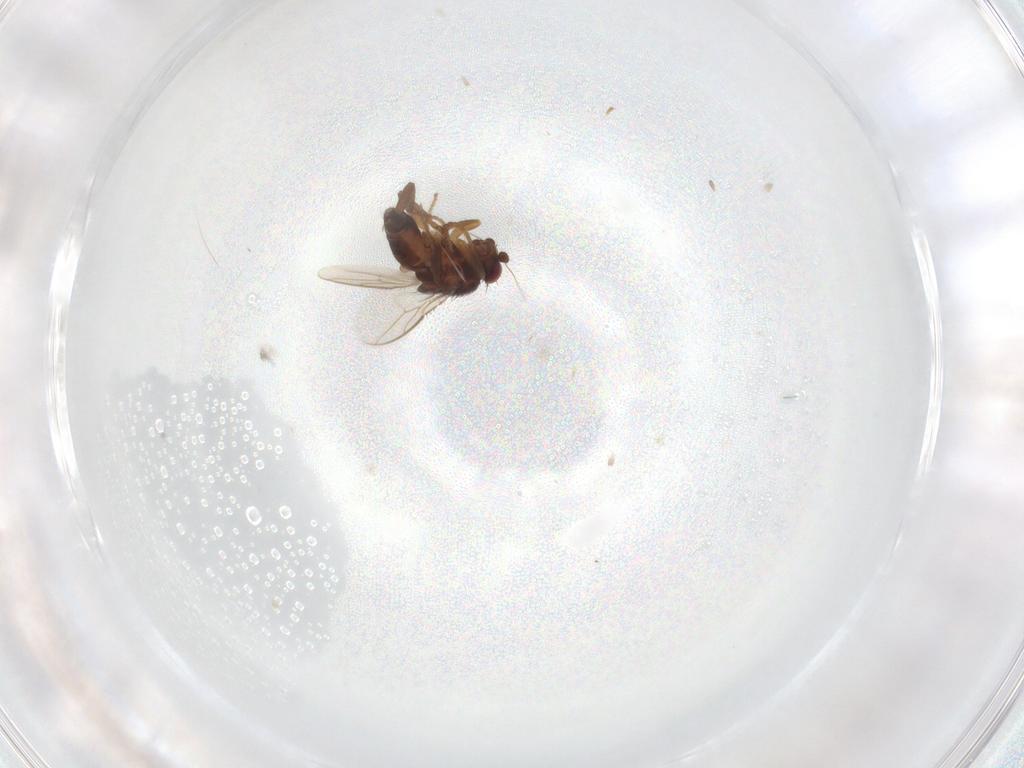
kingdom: Animalia
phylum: Arthropoda
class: Insecta
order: Diptera
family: Sphaeroceridae
